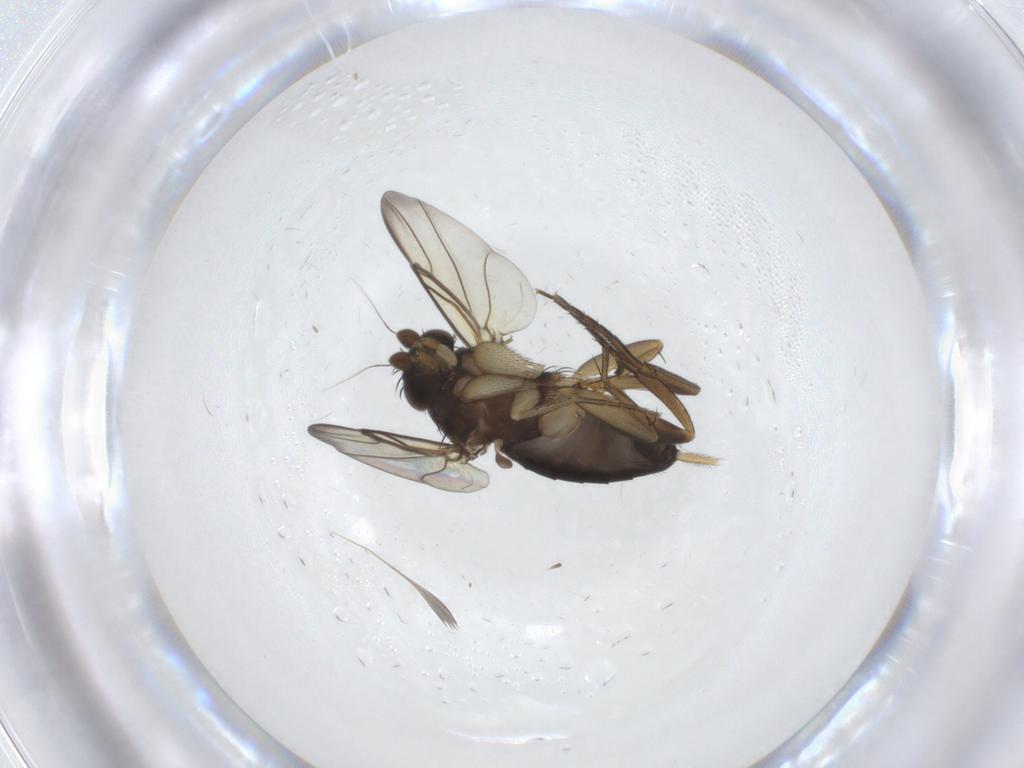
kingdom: Animalia
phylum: Arthropoda
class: Insecta
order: Diptera
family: Phoridae
